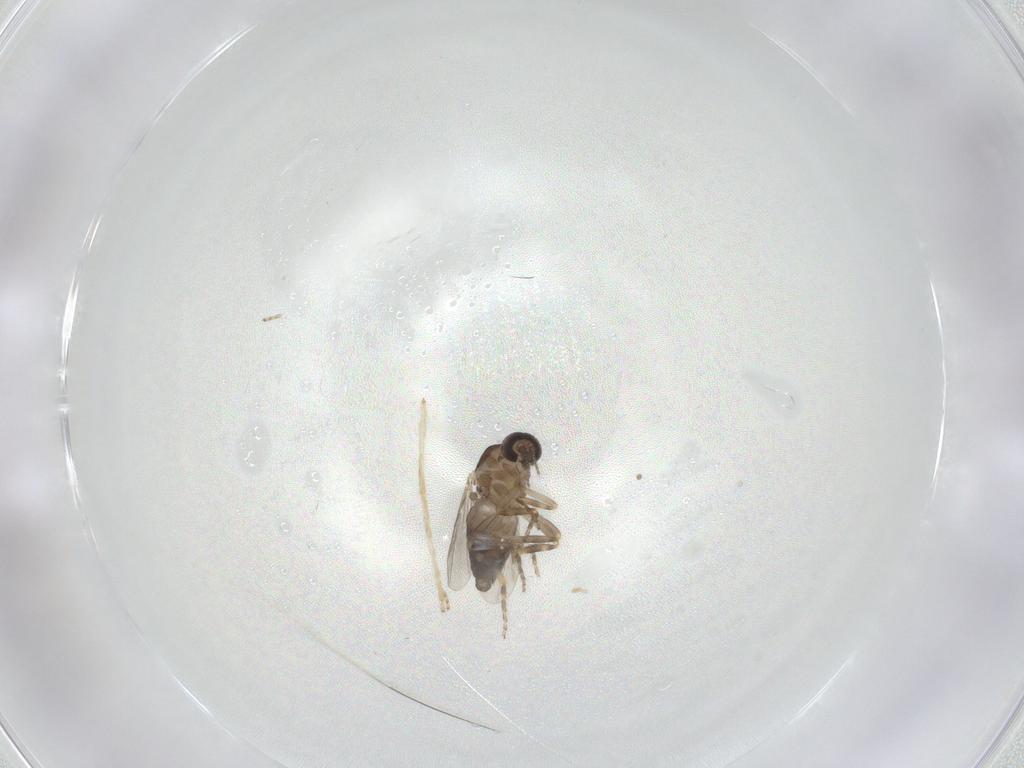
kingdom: Animalia
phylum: Arthropoda
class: Insecta
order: Diptera
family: Ceratopogonidae
